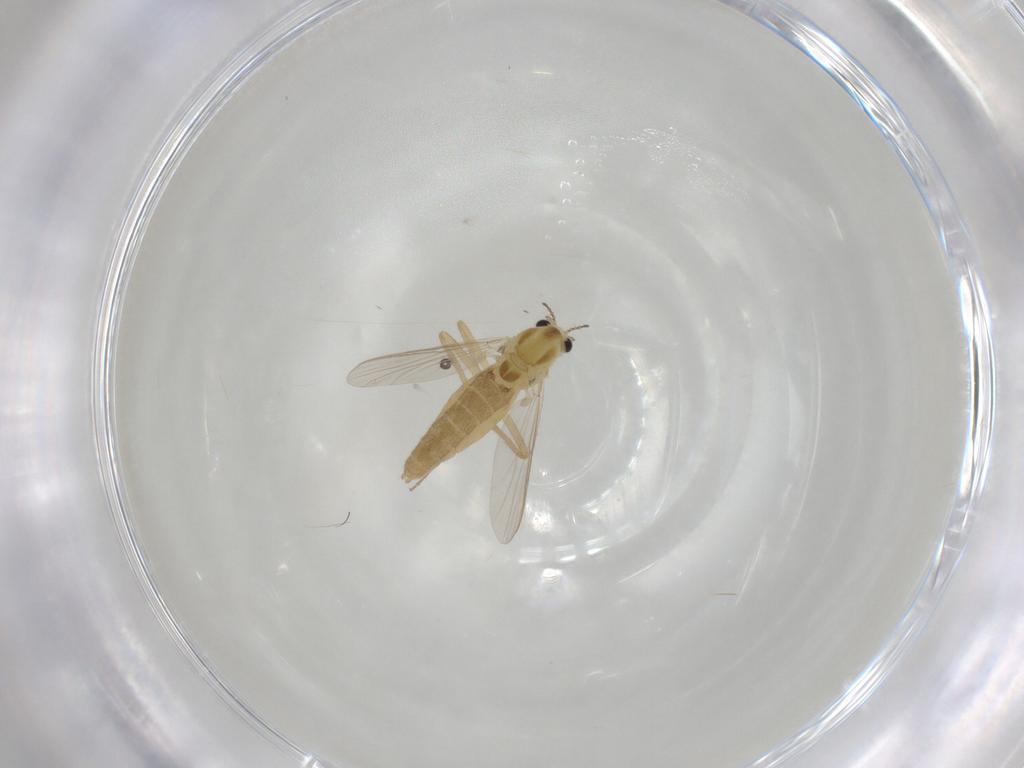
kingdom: Animalia
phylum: Arthropoda
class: Insecta
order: Diptera
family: Chironomidae
